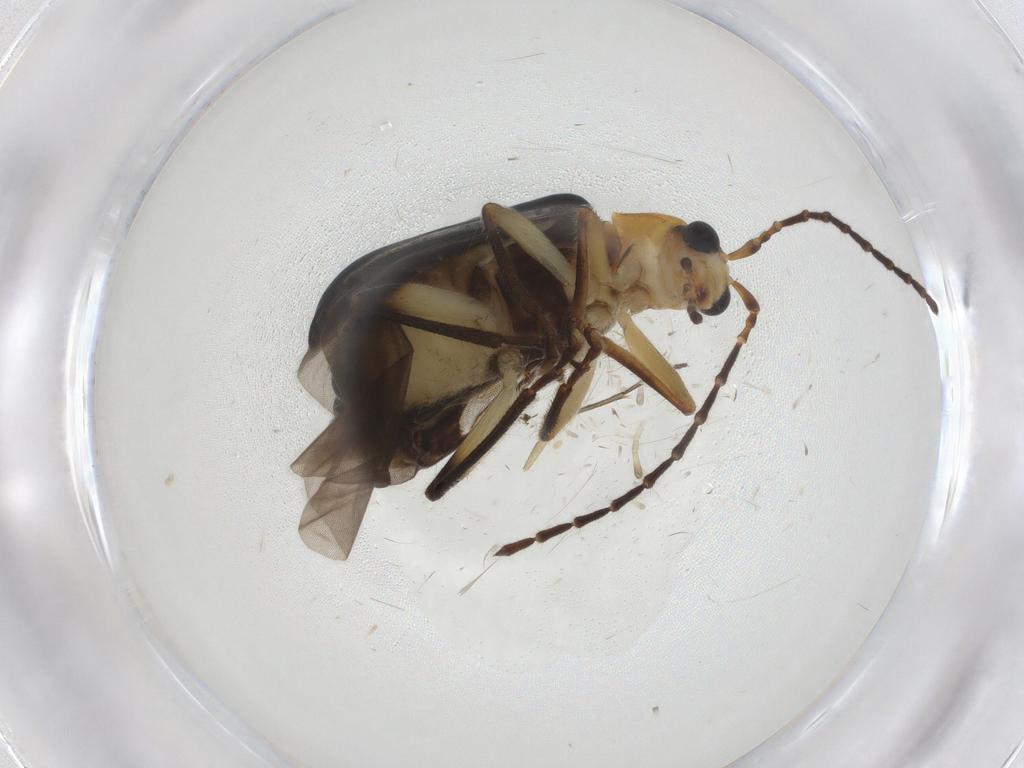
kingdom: Animalia
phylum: Arthropoda
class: Insecta
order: Coleoptera
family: Chrysomelidae
